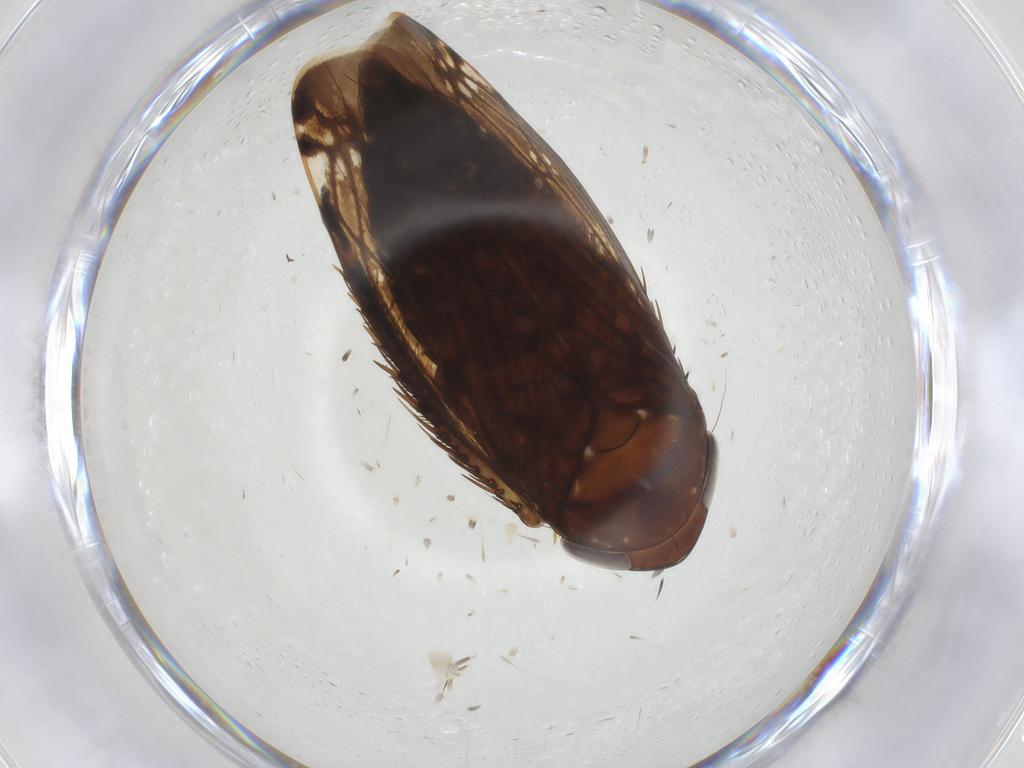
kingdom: Animalia
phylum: Arthropoda
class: Insecta
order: Hemiptera
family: Cicadellidae
